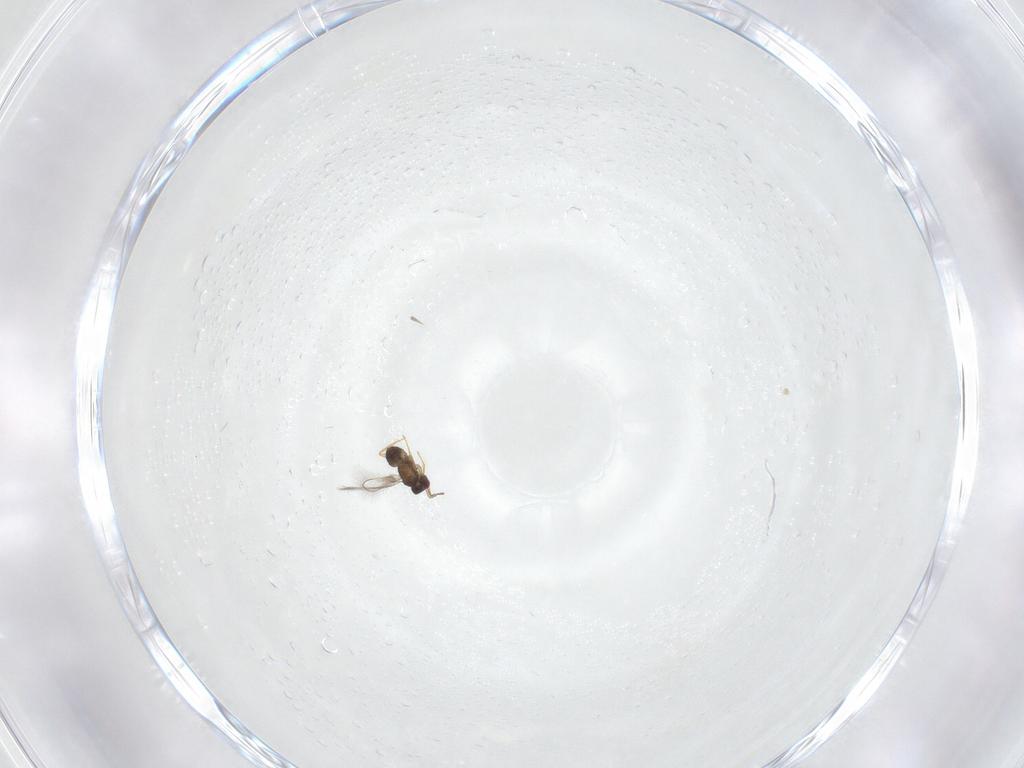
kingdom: Animalia
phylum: Arthropoda
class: Insecta
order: Hymenoptera
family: Mymaridae
